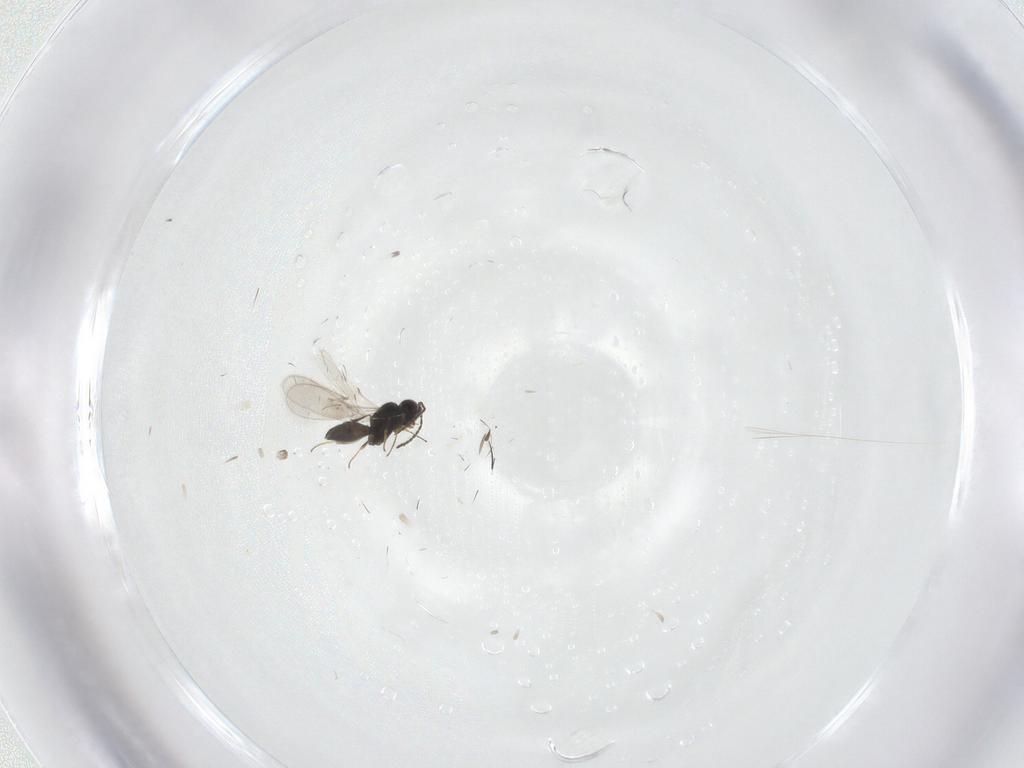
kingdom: Animalia
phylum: Arthropoda
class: Insecta
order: Hymenoptera
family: Scelionidae
